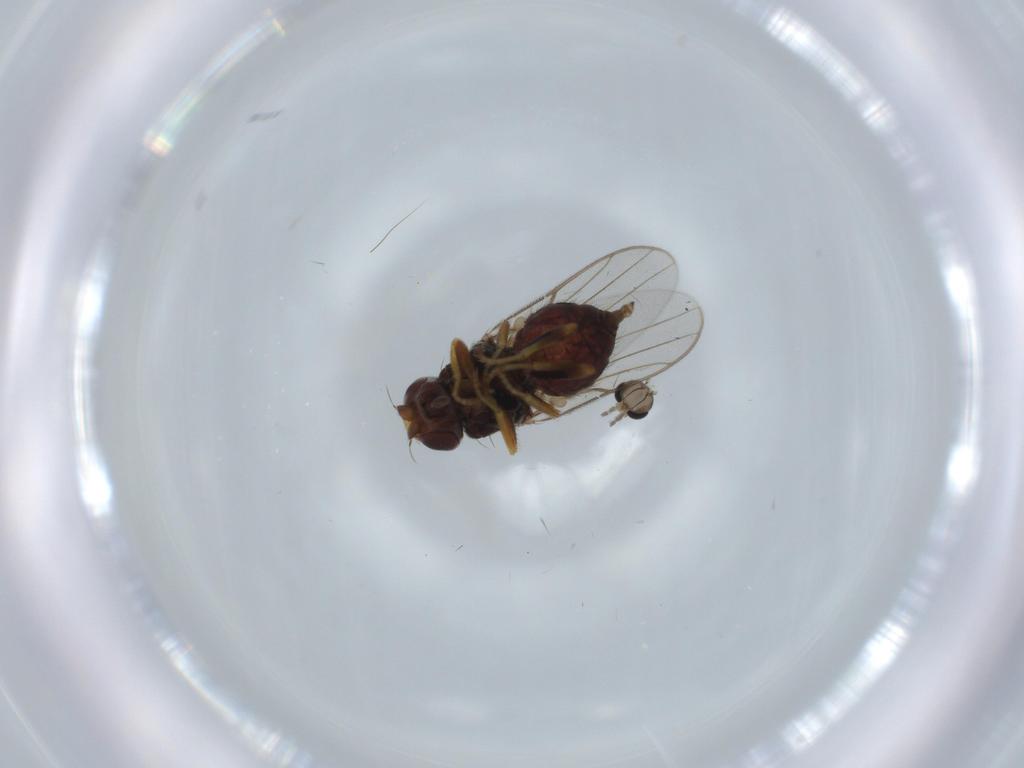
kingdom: Animalia
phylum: Arthropoda
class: Insecta
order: Diptera
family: Chloropidae
